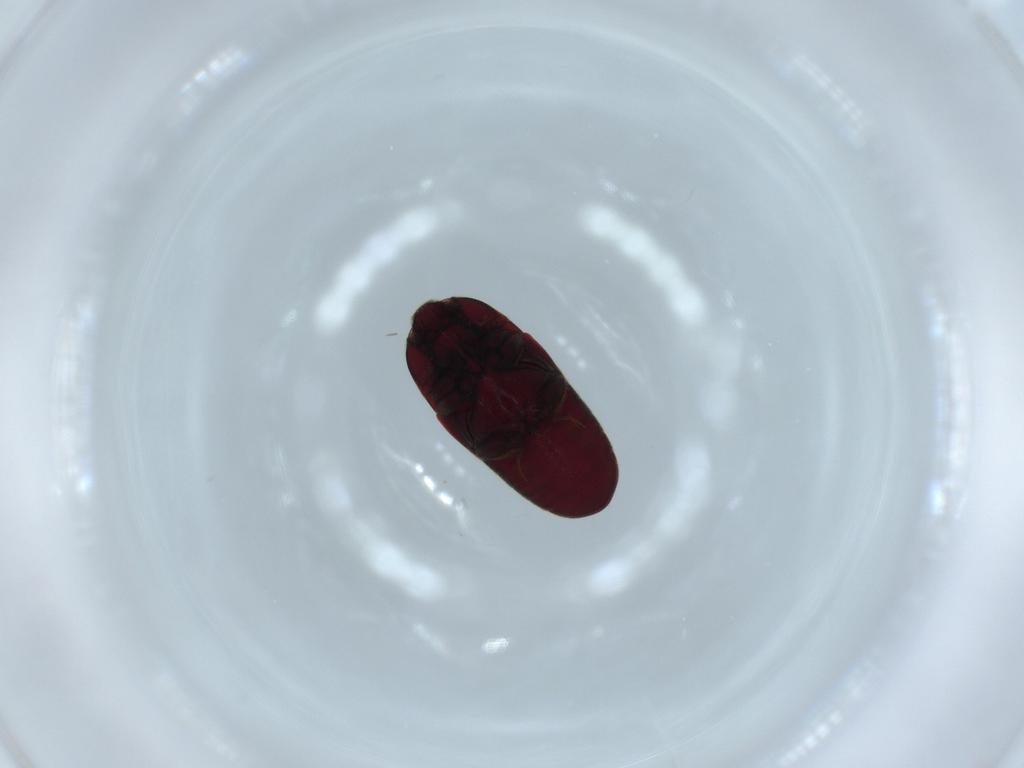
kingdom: Animalia
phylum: Arthropoda
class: Insecta
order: Coleoptera
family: Throscidae
